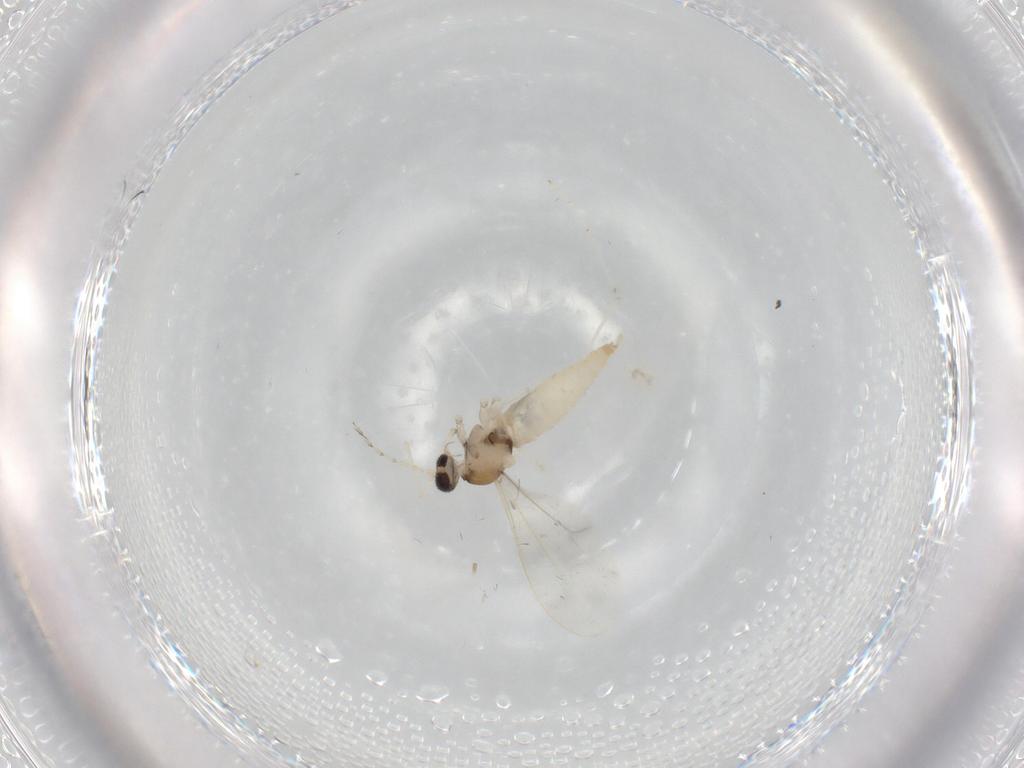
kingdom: Animalia
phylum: Arthropoda
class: Insecta
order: Diptera
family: Cecidomyiidae
